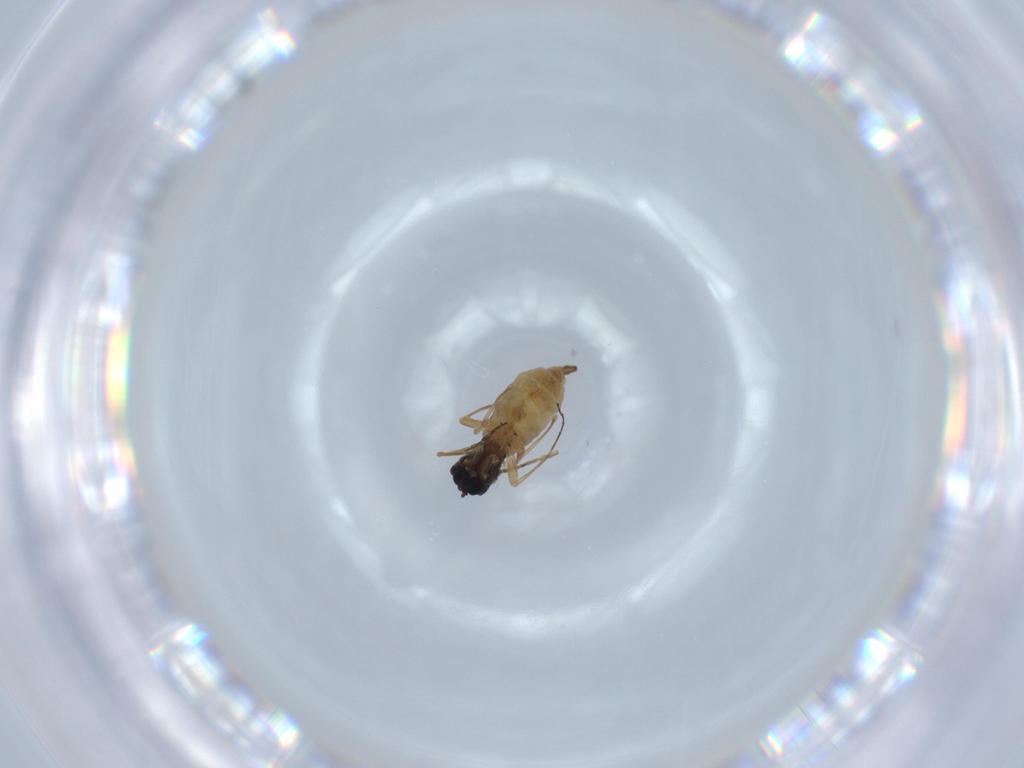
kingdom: Animalia
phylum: Arthropoda
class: Insecta
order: Diptera
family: Sciaridae
